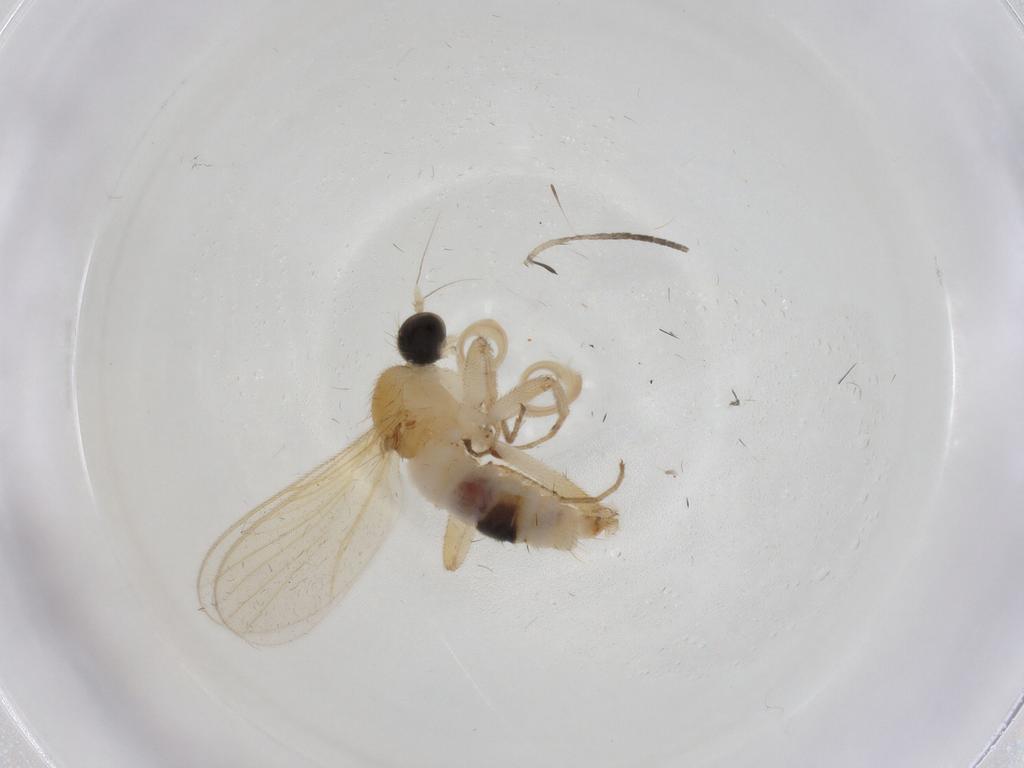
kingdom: Animalia
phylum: Arthropoda
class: Insecta
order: Diptera
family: Hybotidae
